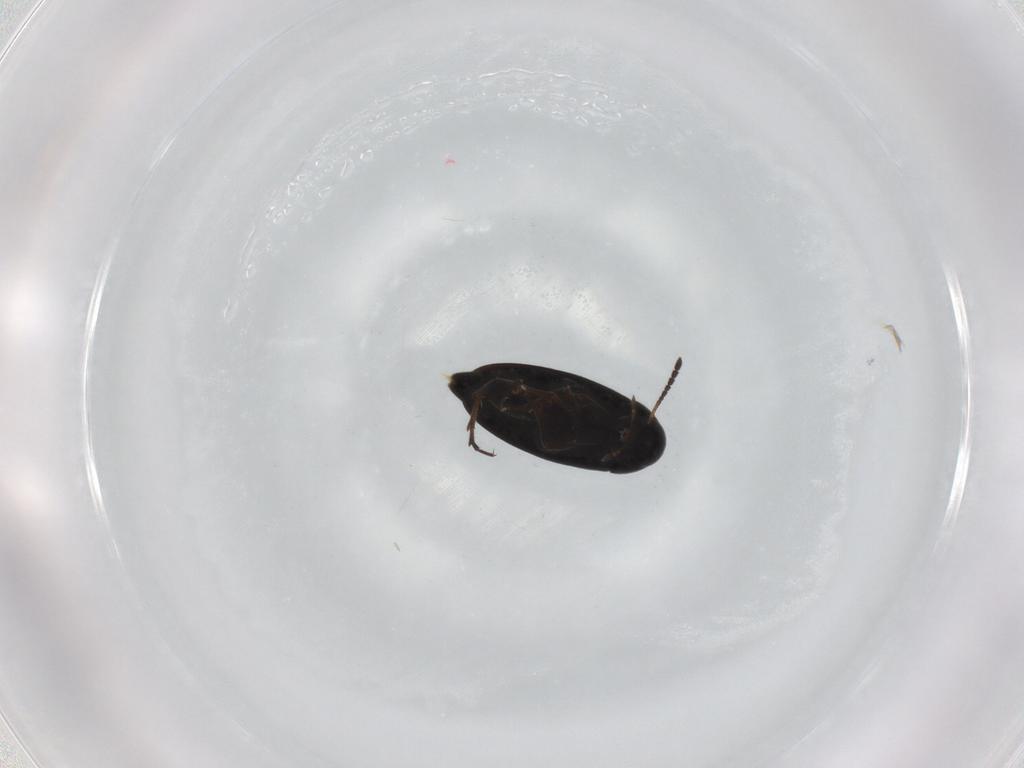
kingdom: Animalia
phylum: Arthropoda
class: Insecta
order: Coleoptera
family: Scraptiidae
